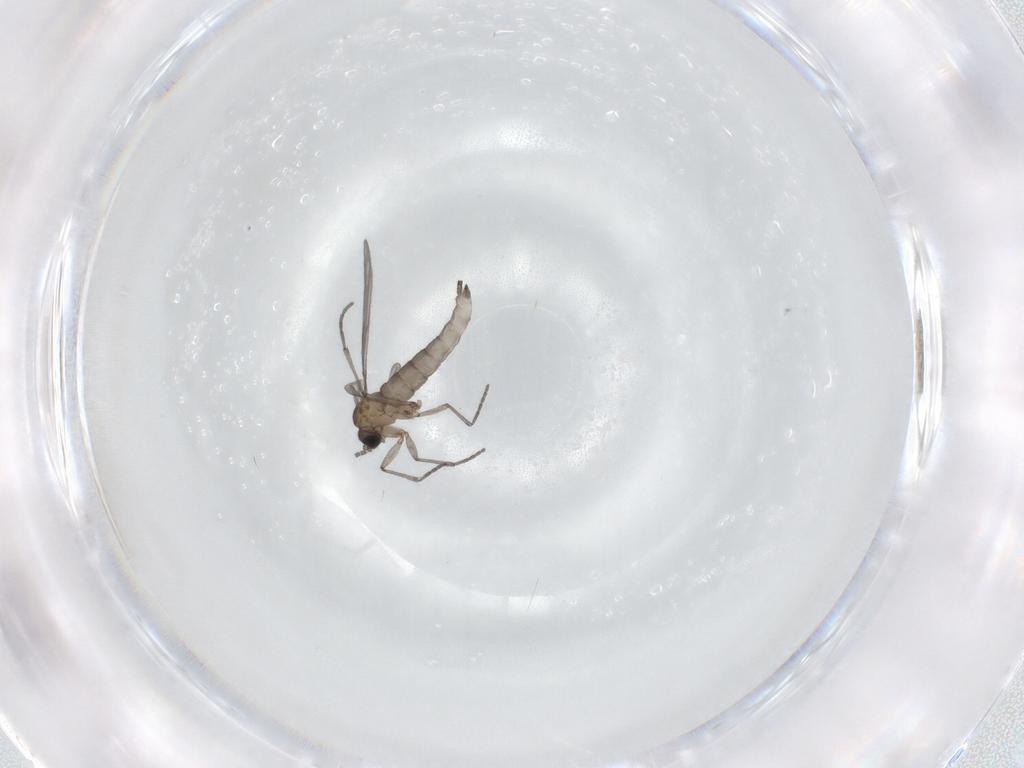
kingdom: Animalia
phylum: Arthropoda
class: Insecta
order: Diptera
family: Sciaridae
